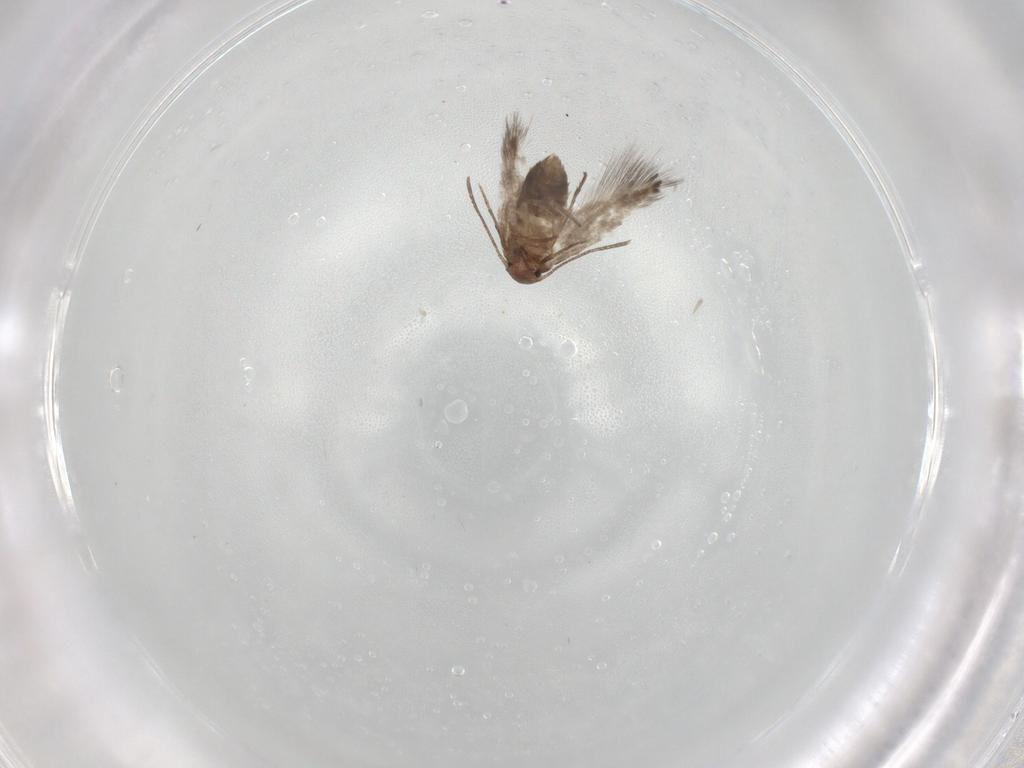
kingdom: Animalia
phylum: Arthropoda
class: Insecta
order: Lepidoptera
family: Lyonetiidae
